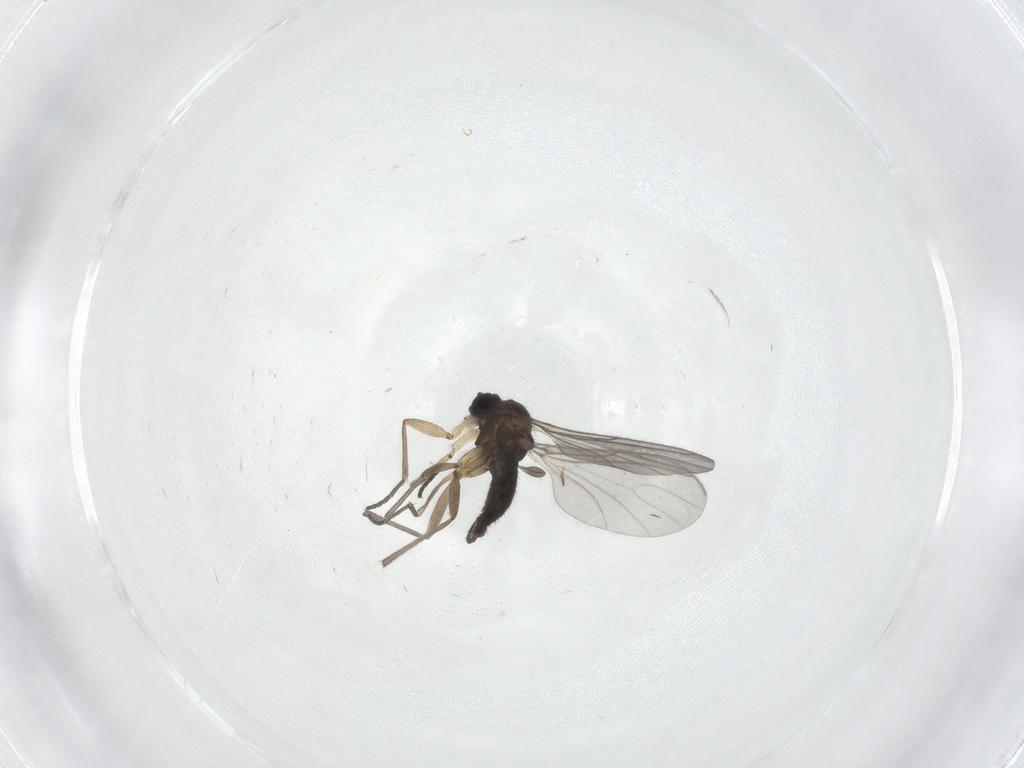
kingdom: Animalia
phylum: Arthropoda
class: Insecta
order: Diptera
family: Sciaridae
